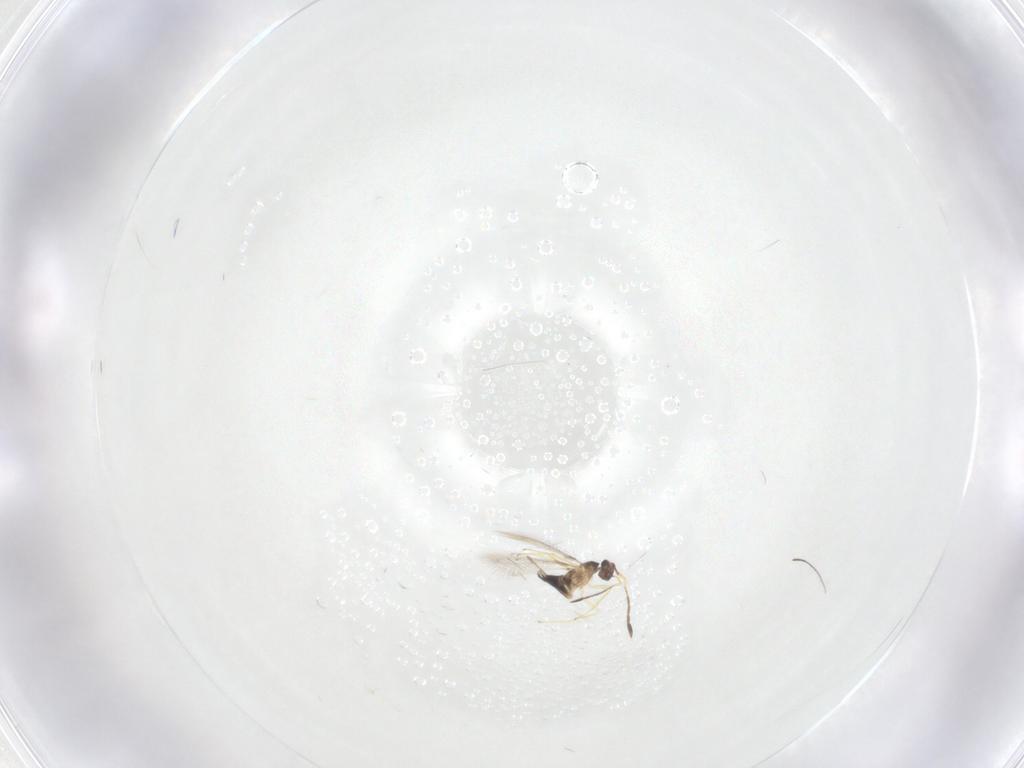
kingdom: Animalia
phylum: Arthropoda
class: Insecta
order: Hymenoptera
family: Mymaridae
